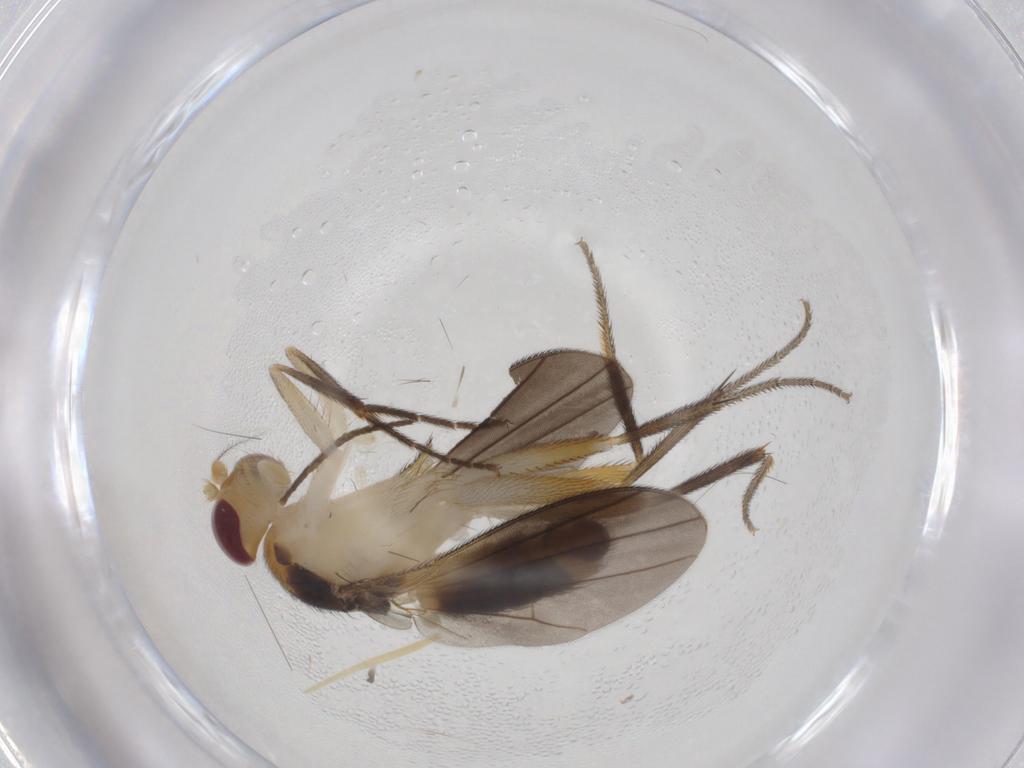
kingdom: Animalia
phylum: Arthropoda
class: Insecta
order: Diptera
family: Clusiidae
